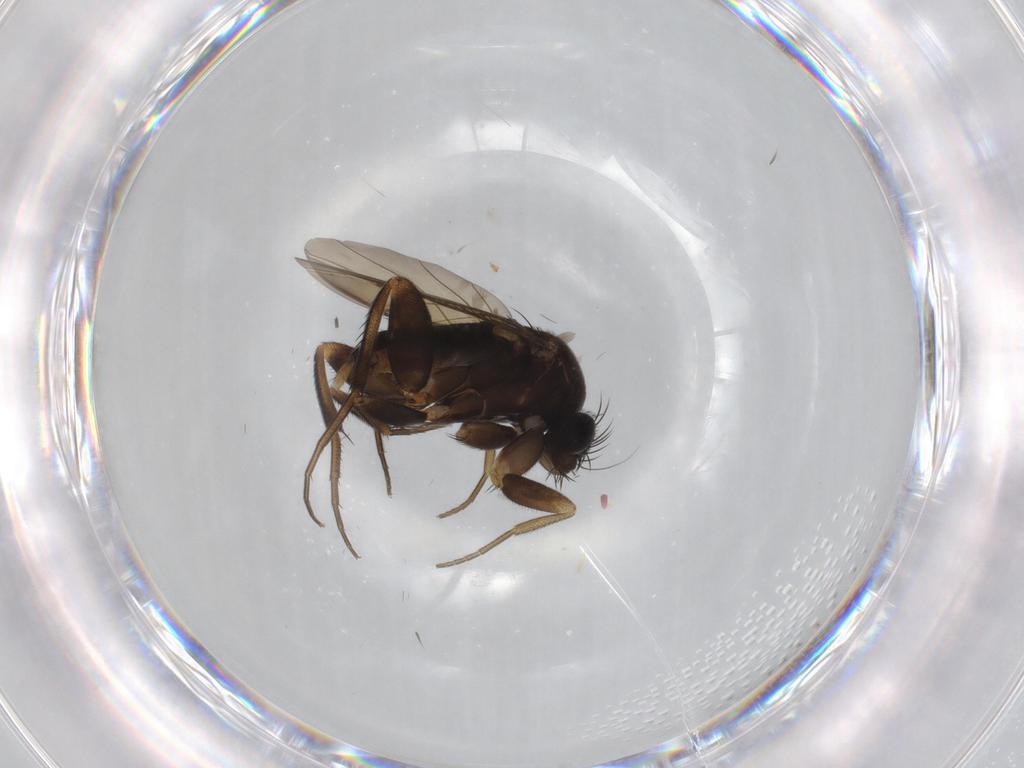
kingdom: Animalia
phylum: Arthropoda
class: Insecta
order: Diptera
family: Phoridae
